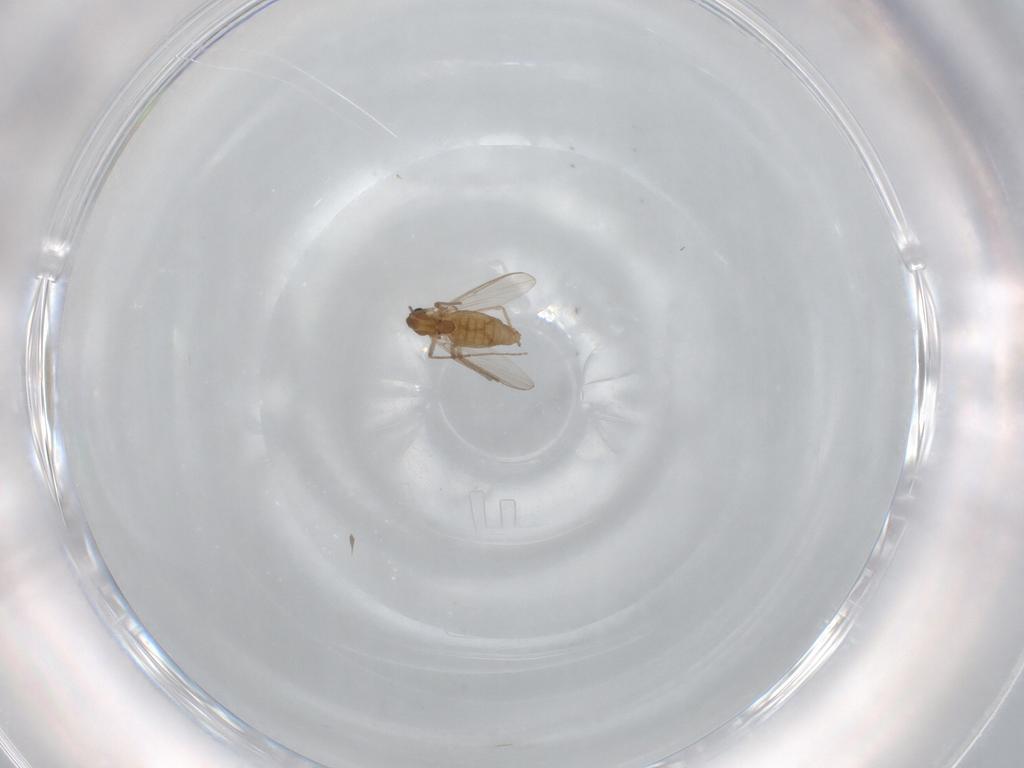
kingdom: Animalia
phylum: Arthropoda
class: Insecta
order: Diptera
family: Chironomidae
